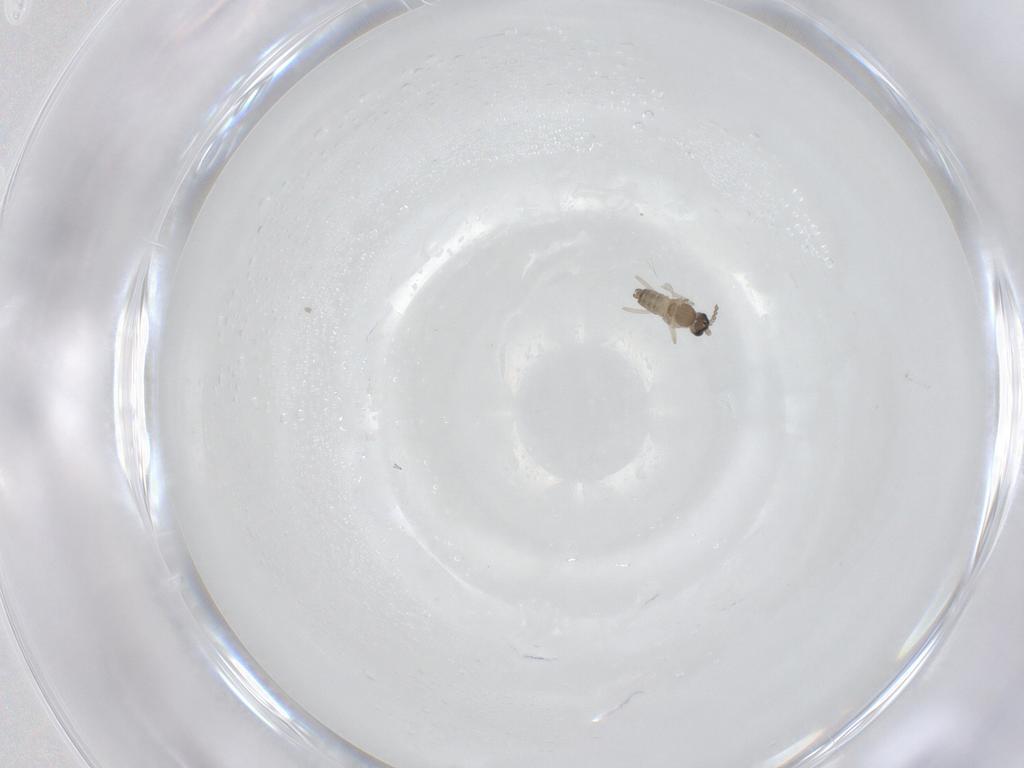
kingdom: Animalia
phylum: Arthropoda
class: Insecta
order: Diptera
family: Cecidomyiidae
